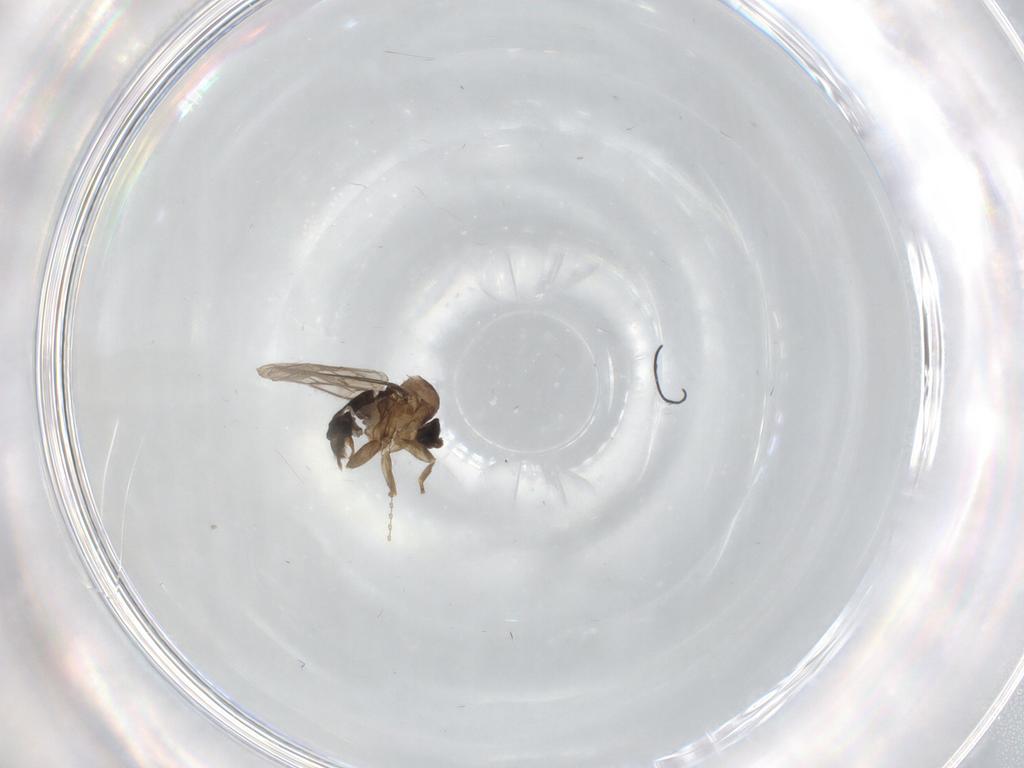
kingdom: Animalia
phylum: Arthropoda
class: Insecta
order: Diptera
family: Phoridae
